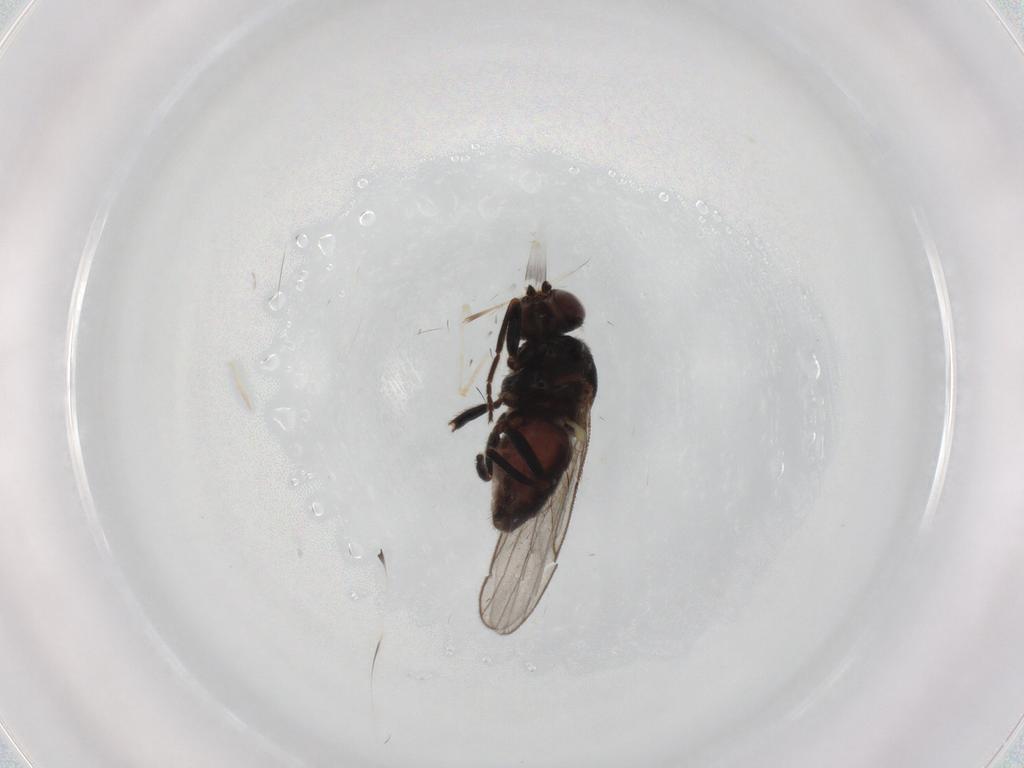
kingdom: Animalia
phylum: Arthropoda
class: Insecta
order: Diptera
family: Chloropidae
